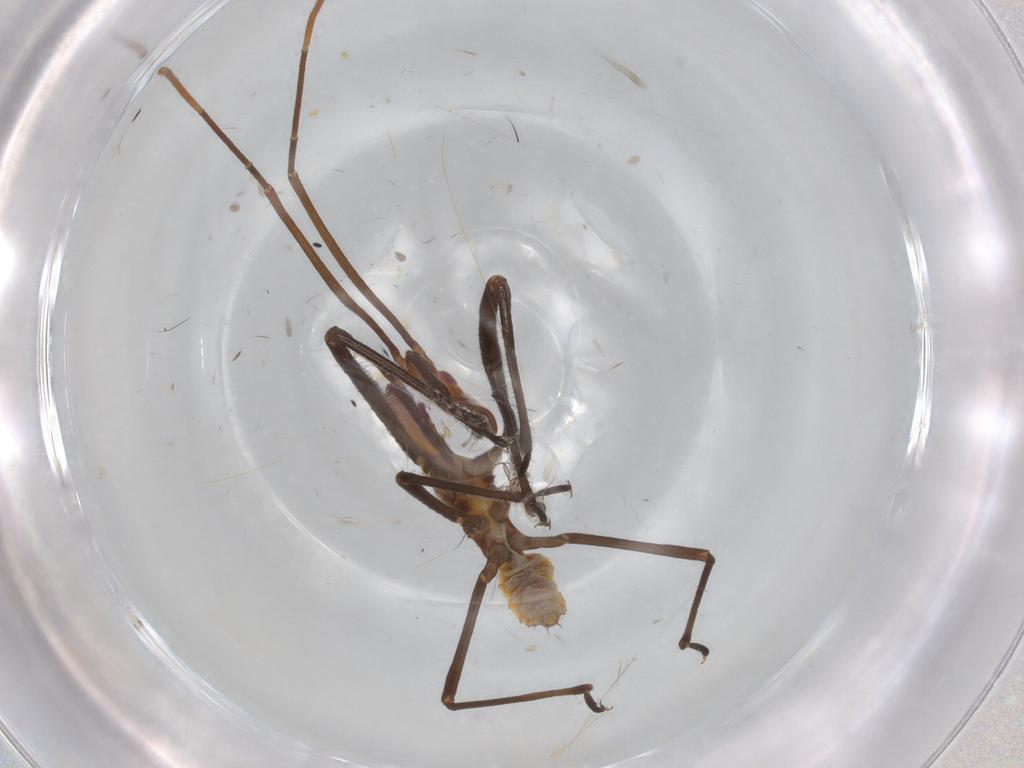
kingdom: Animalia
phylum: Arthropoda
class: Insecta
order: Hemiptera
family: Reduviidae
